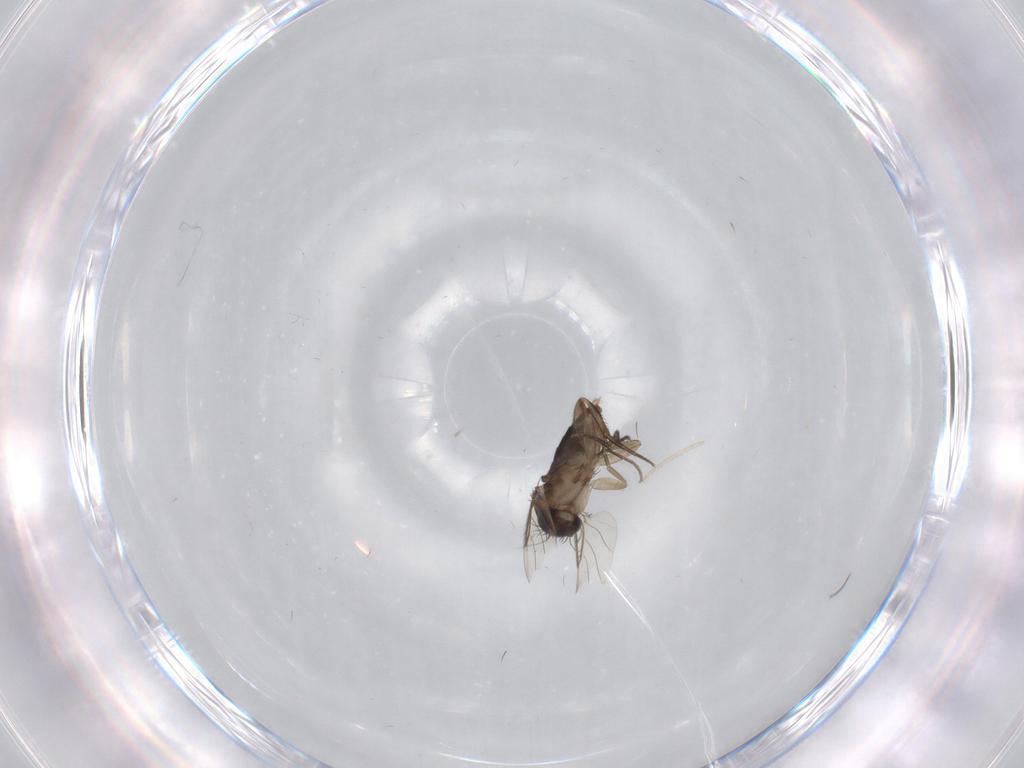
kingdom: Animalia
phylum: Arthropoda
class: Insecta
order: Diptera
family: Phoridae
